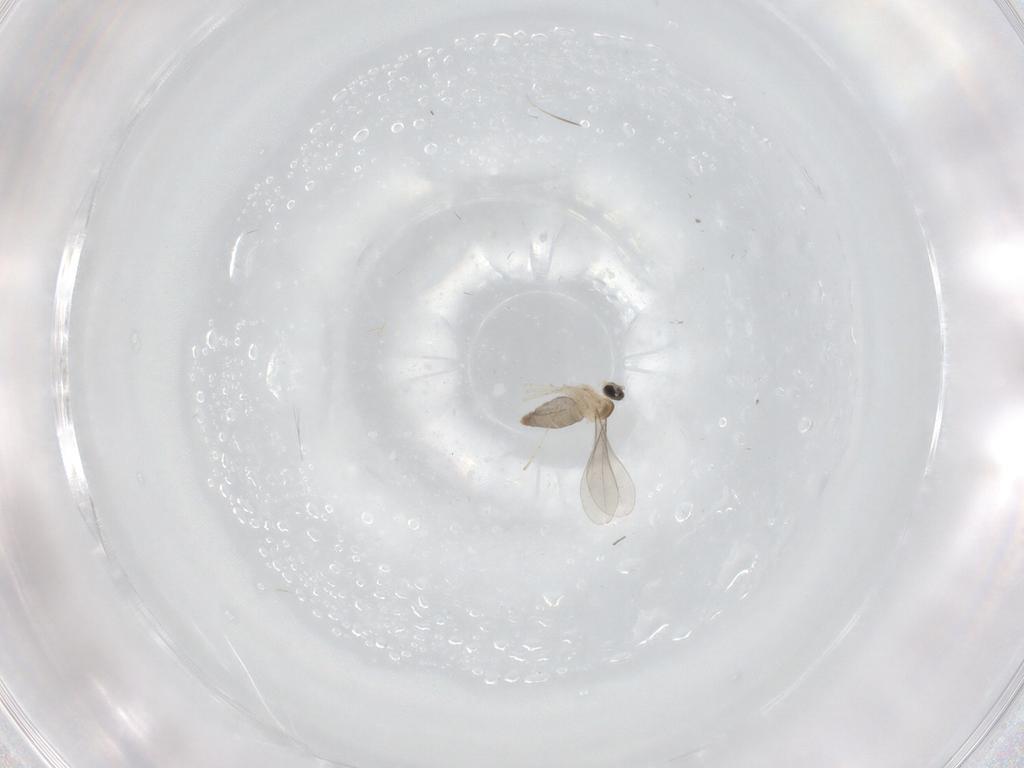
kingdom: Animalia
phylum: Arthropoda
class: Insecta
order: Diptera
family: Cecidomyiidae
